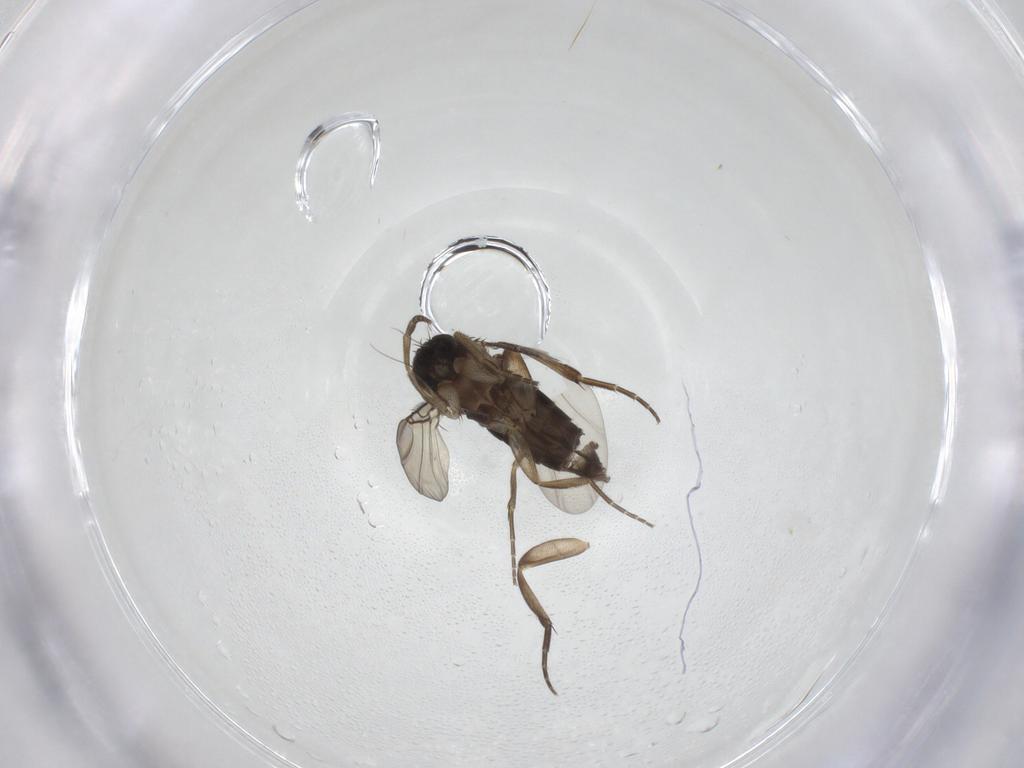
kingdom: Animalia
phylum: Arthropoda
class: Insecta
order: Diptera
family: Phoridae
